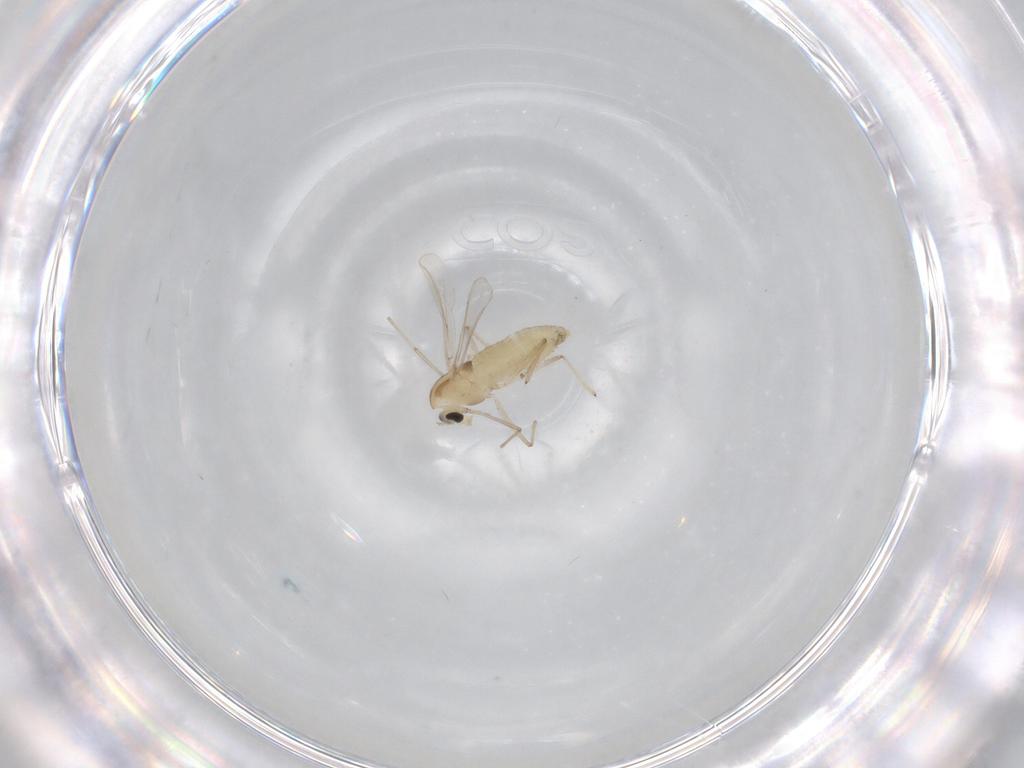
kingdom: Animalia
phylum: Arthropoda
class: Insecta
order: Diptera
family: Chironomidae
